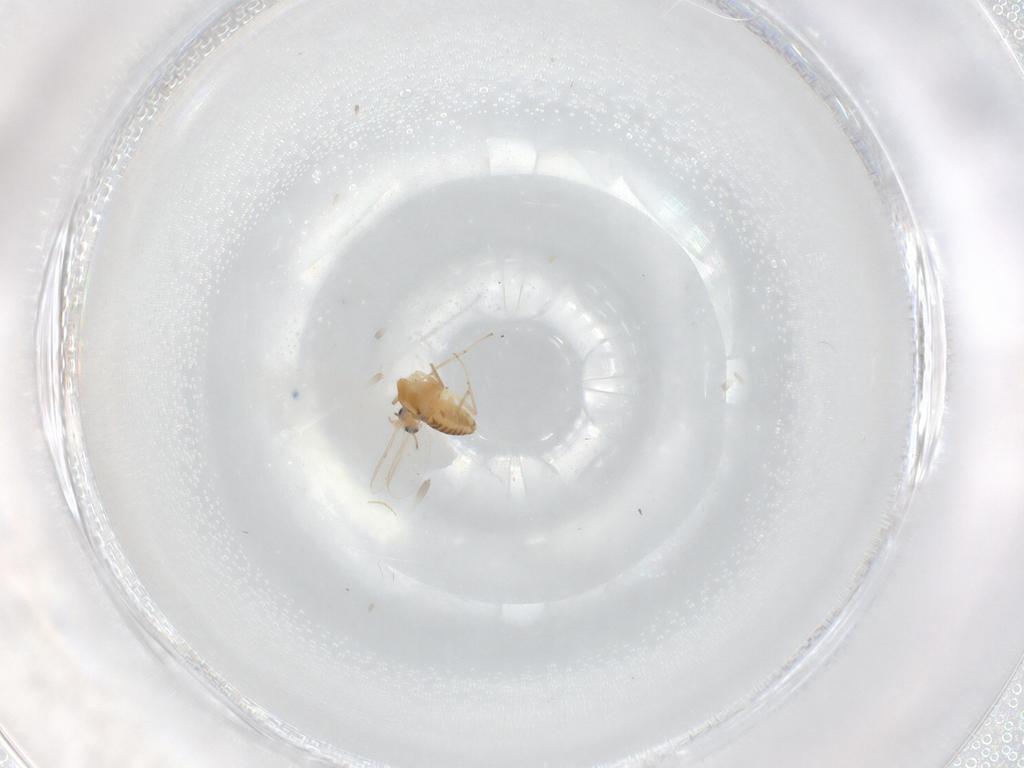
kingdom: Animalia
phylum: Arthropoda
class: Insecta
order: Diptera
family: Chironomidae
